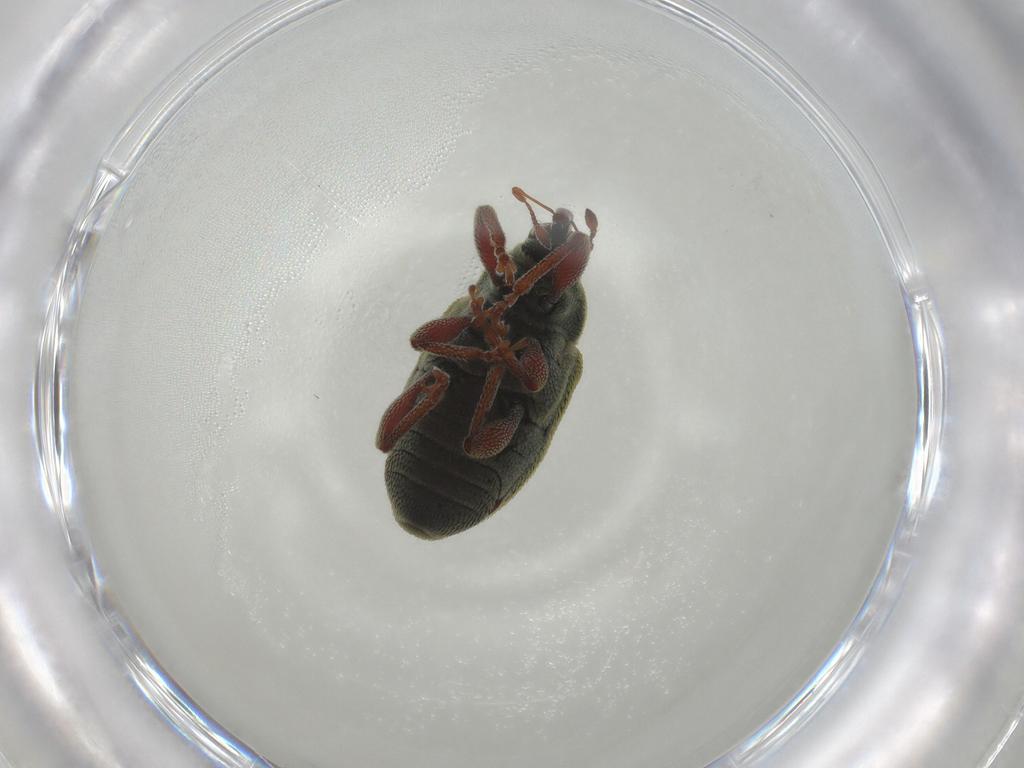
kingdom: Animalia
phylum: Arthropoda
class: Insecta
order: Coleoptera
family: Curculionidae
